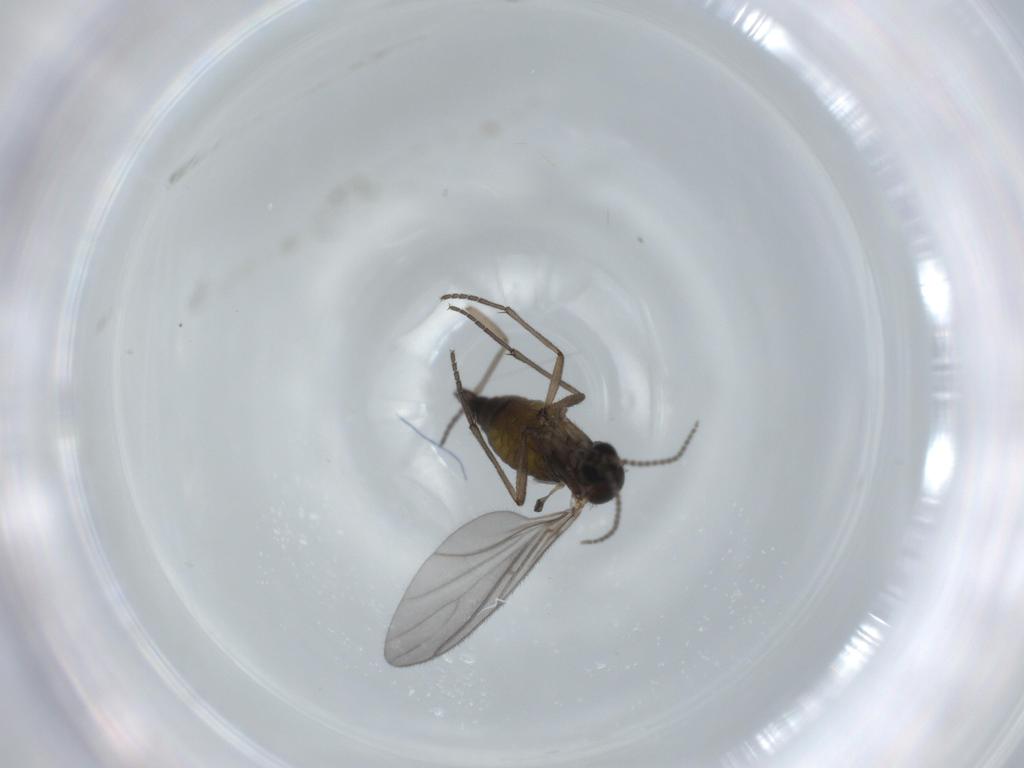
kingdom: Animalia
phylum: Arthropoda
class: Insecta
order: Diptera
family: Sciaridae
